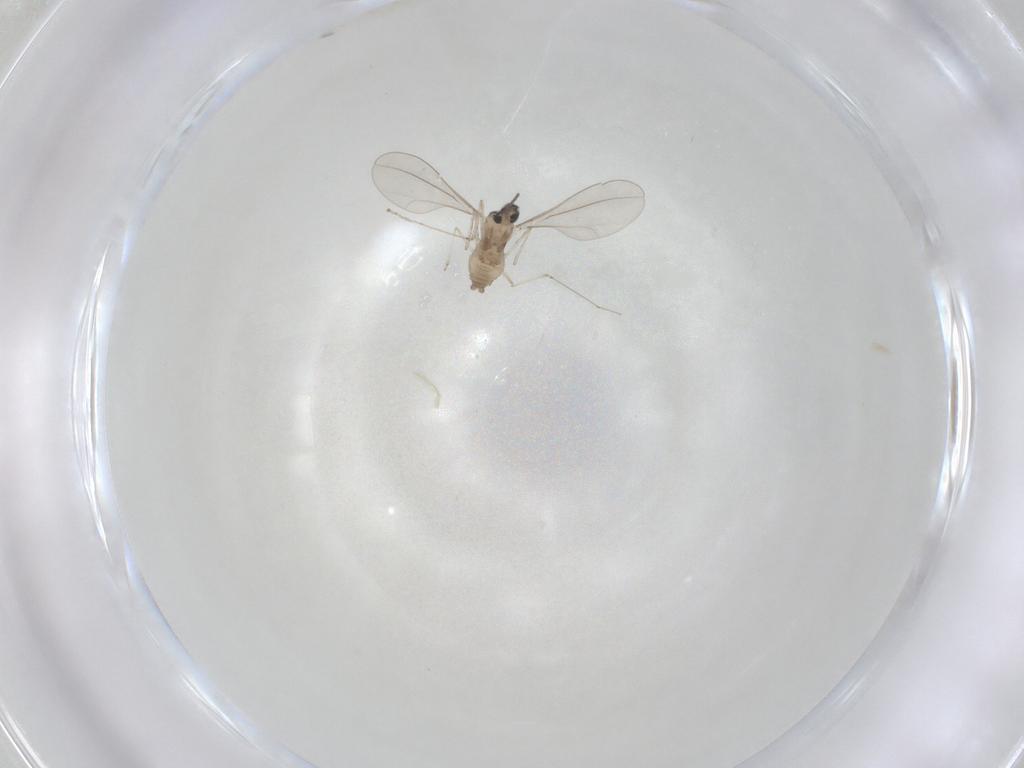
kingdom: Animalia
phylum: Arthropoda
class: Insecta
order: Diptera
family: Cecidomyiidae
